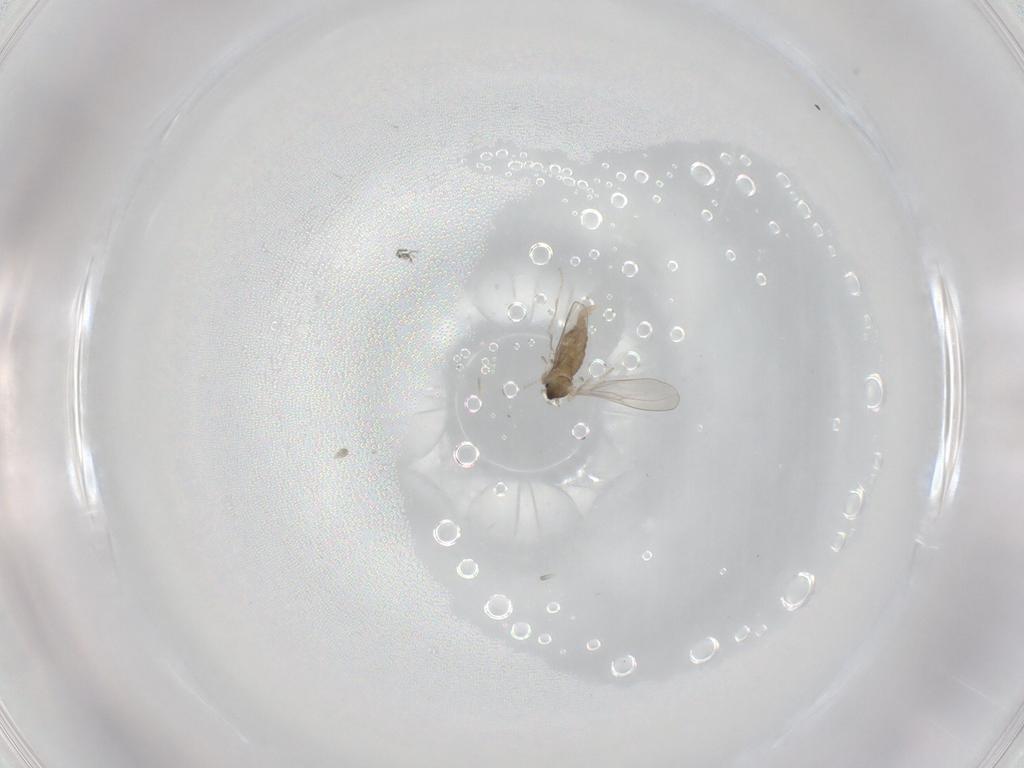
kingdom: Animalia
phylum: Arthropoda
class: Insecta
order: Diptera
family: Cecidomyiidae
